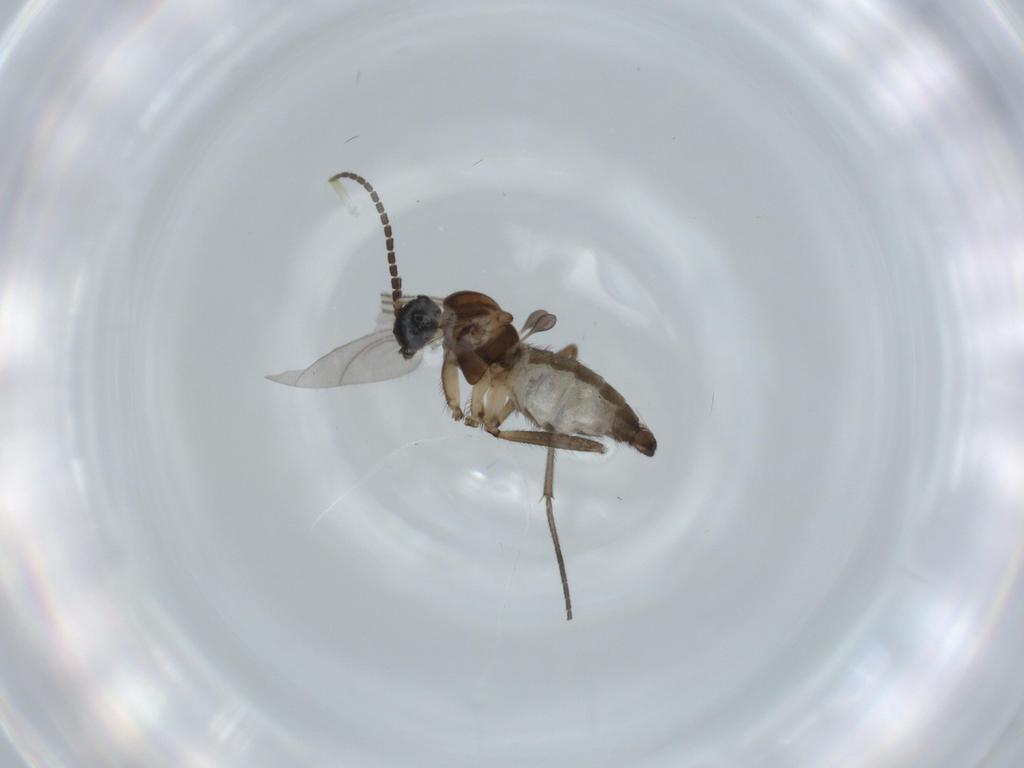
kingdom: Animalia
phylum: Arthropoda
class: Insecta
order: Diptera
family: Sciaridae
